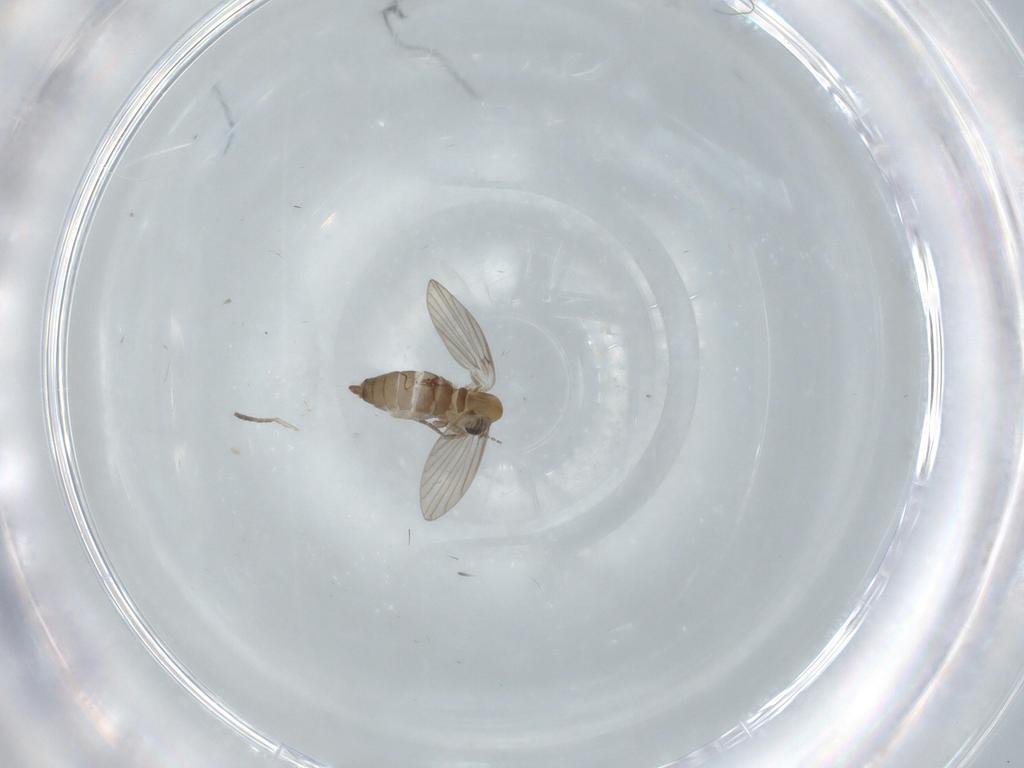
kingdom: Animalia
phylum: Arthropoda
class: Insecta
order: Diptera
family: Psychodidae
